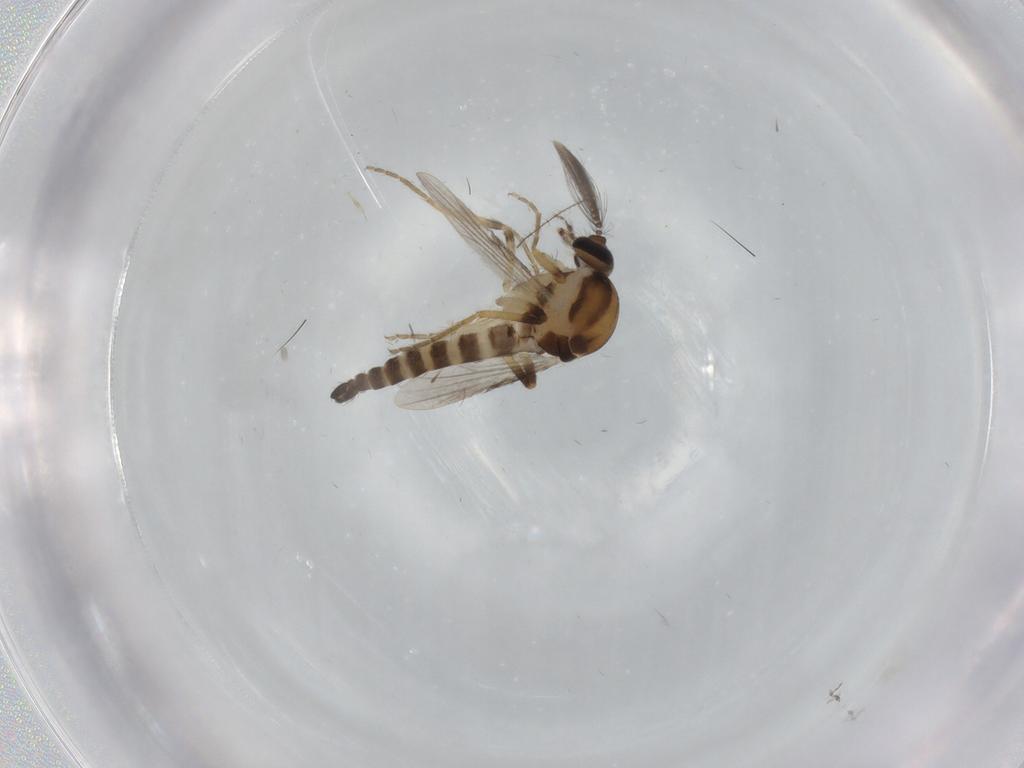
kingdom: Animalia
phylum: Arthropoda
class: Insecta
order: Diptera
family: Ceratopogonidae
